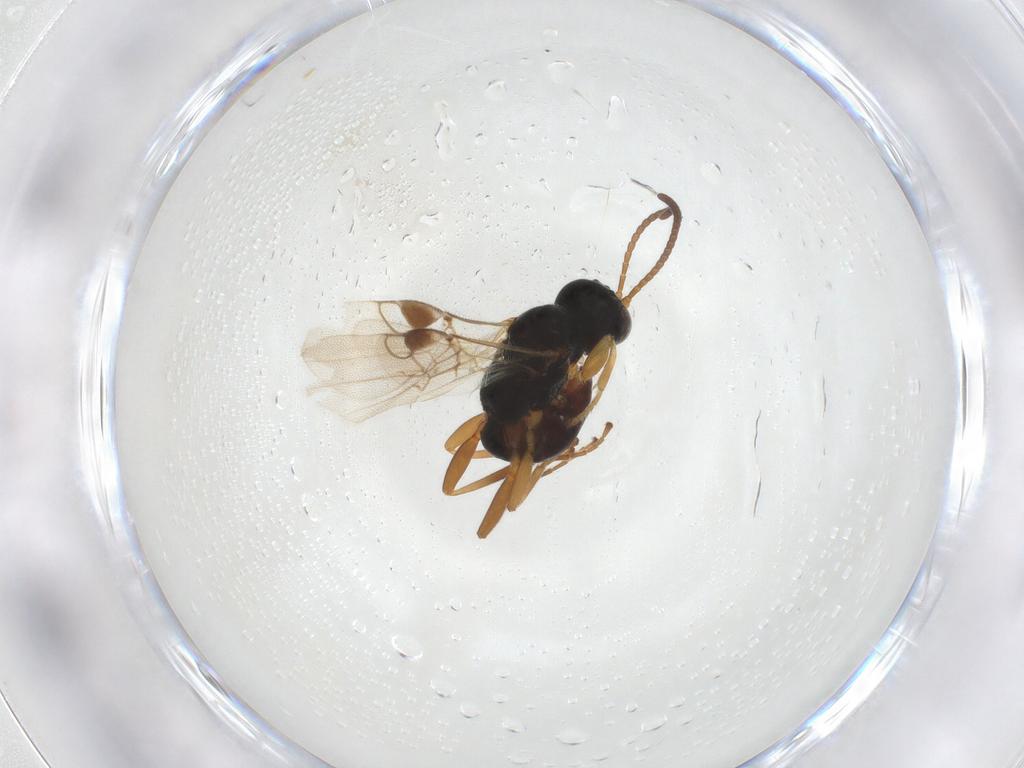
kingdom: Animalia
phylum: Arthropoda
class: Insecta
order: Hymenoptera
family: Braconidae
